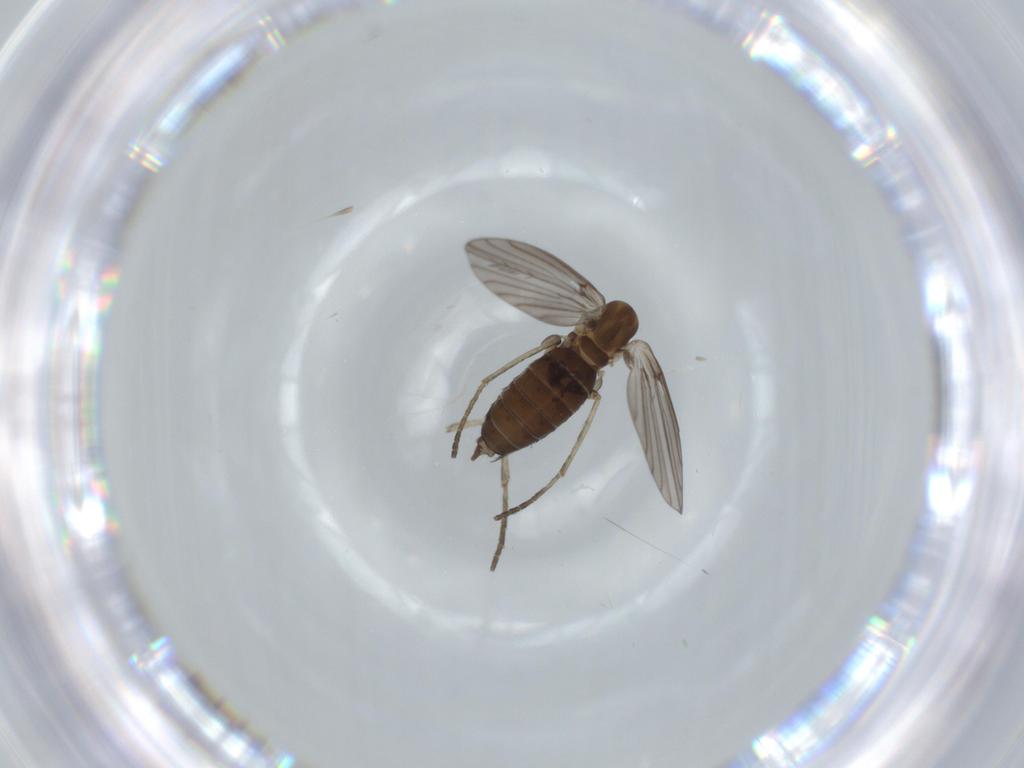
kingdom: Animalia
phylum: Arthropoda
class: Insecta
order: Diptera
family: Psychodidae
